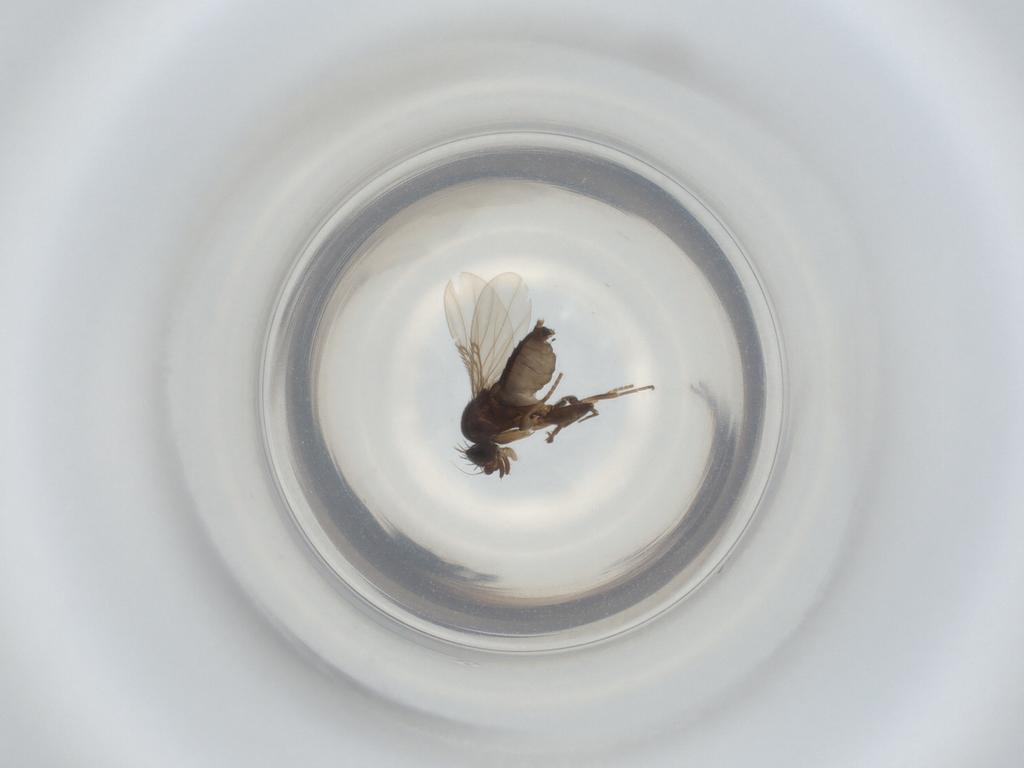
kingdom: Animalia
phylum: Arthropoda
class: Insecta
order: Diptera
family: Phoridae
